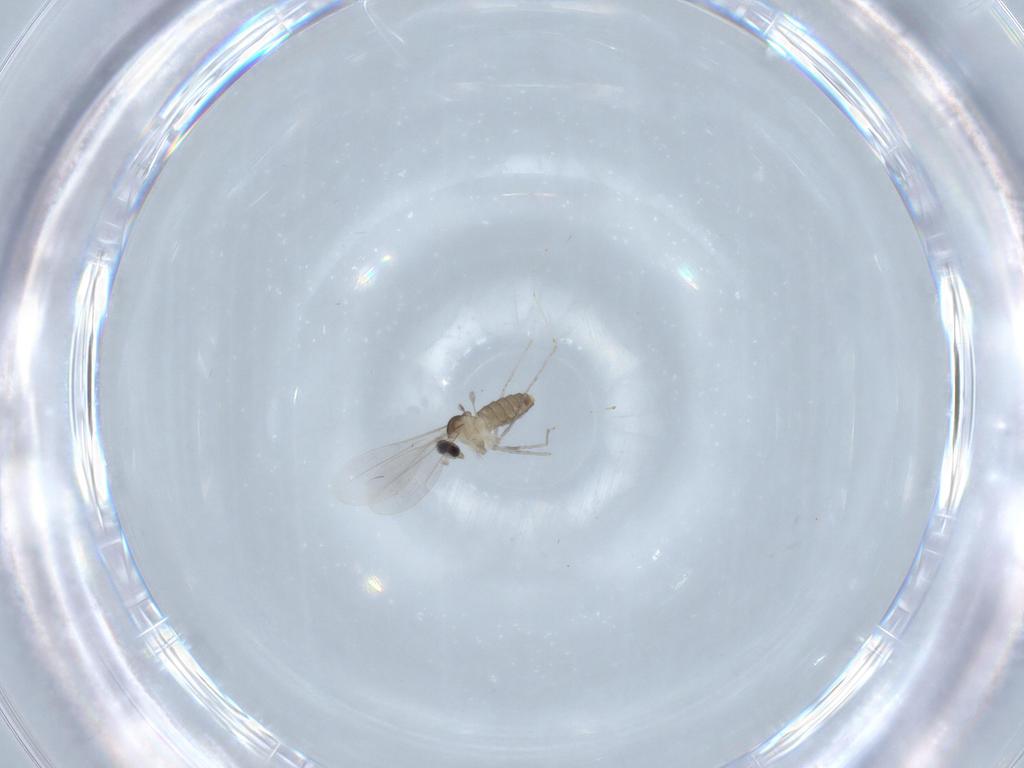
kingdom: Animalia
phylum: Arthropoda
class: Insecta
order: Diptera
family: Cecidomyiidae
